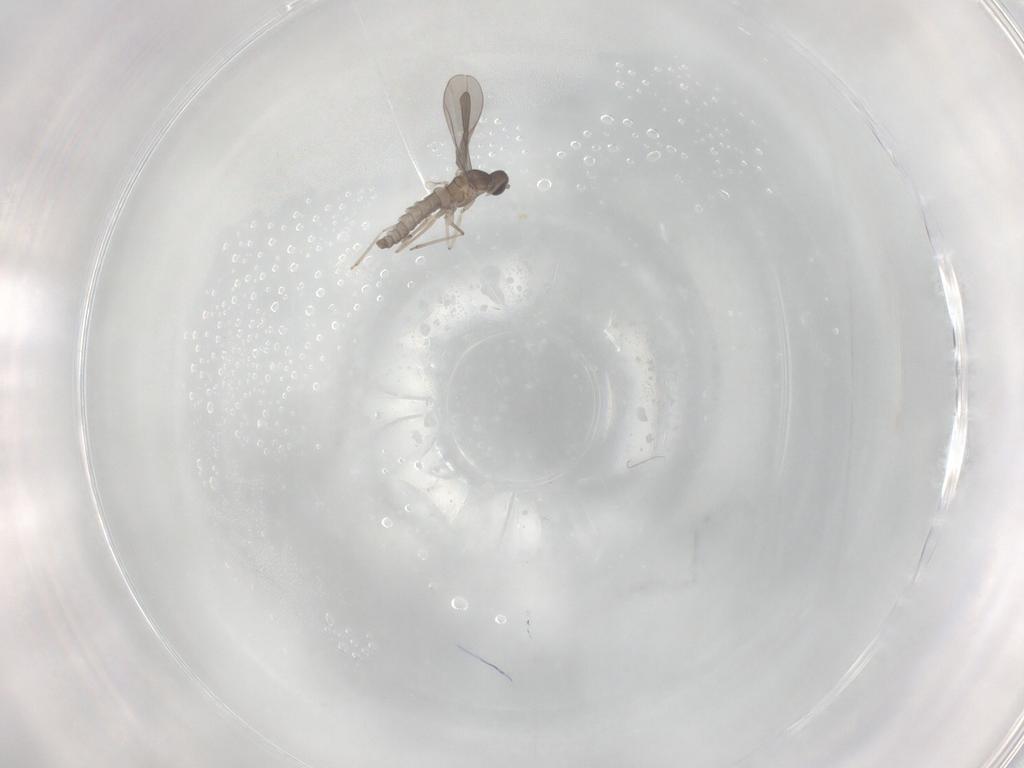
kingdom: Animalia
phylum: Arthropoda
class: Insecta
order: Diptera
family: Cecidomyiidae
